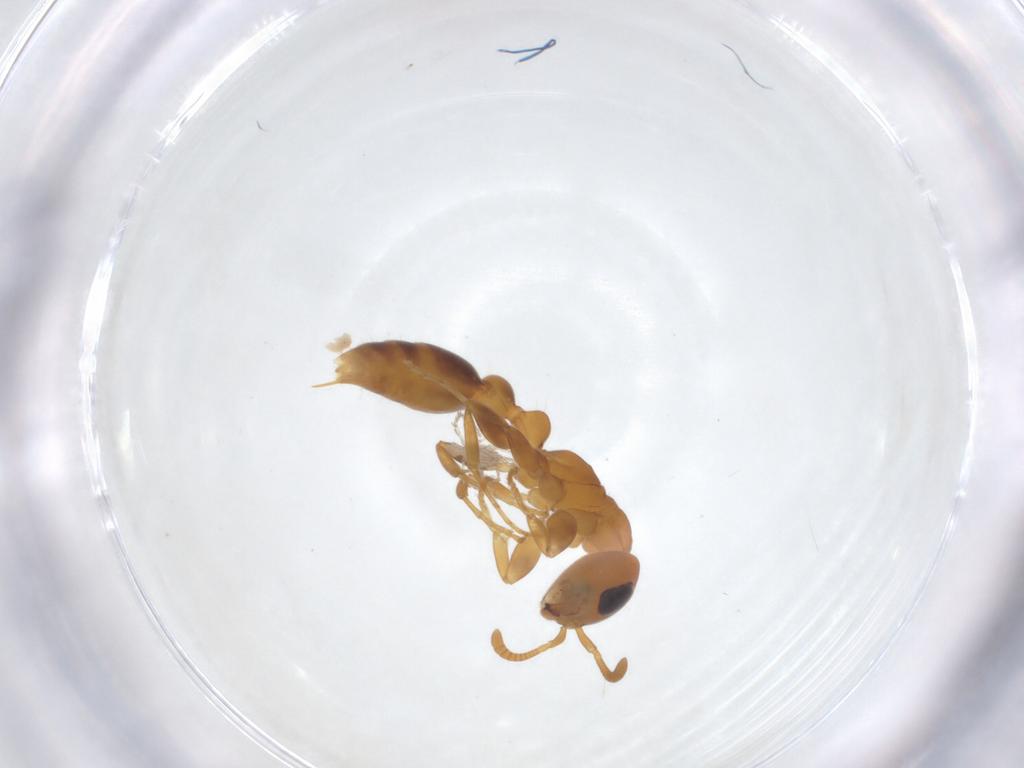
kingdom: Animalia
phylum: Arthropoda
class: Insecta
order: Hymenoptera
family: Formicidae
